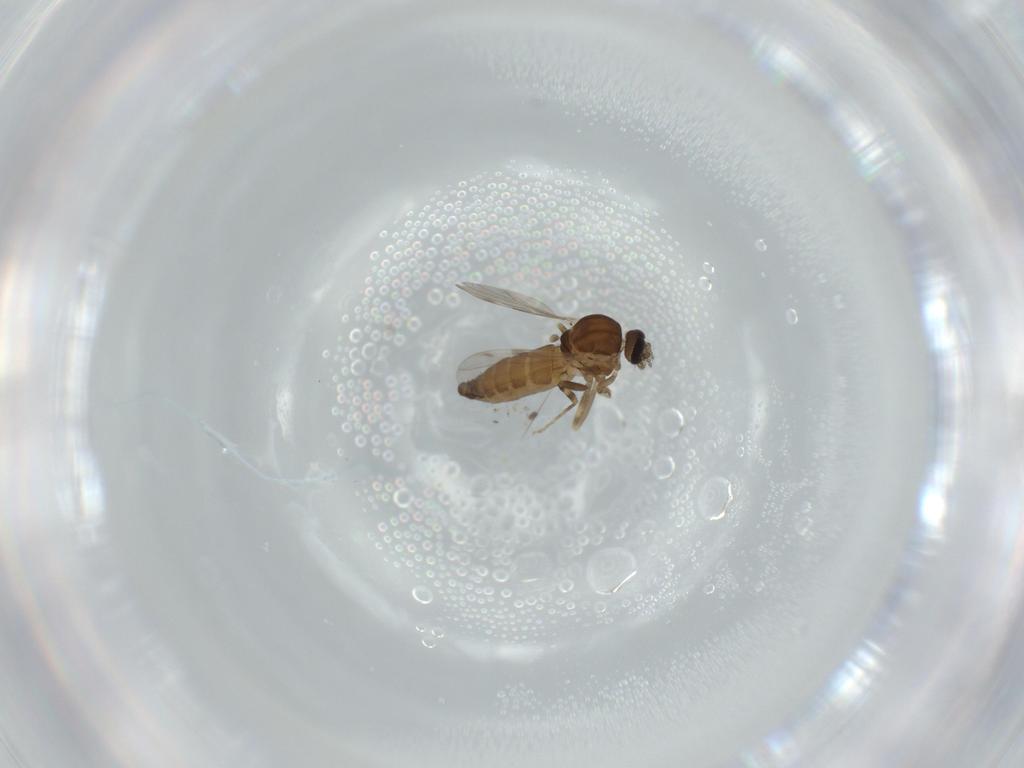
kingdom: Animalia
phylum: Arthropoda
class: Insecta
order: Diptera
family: Ceratopogonidae
